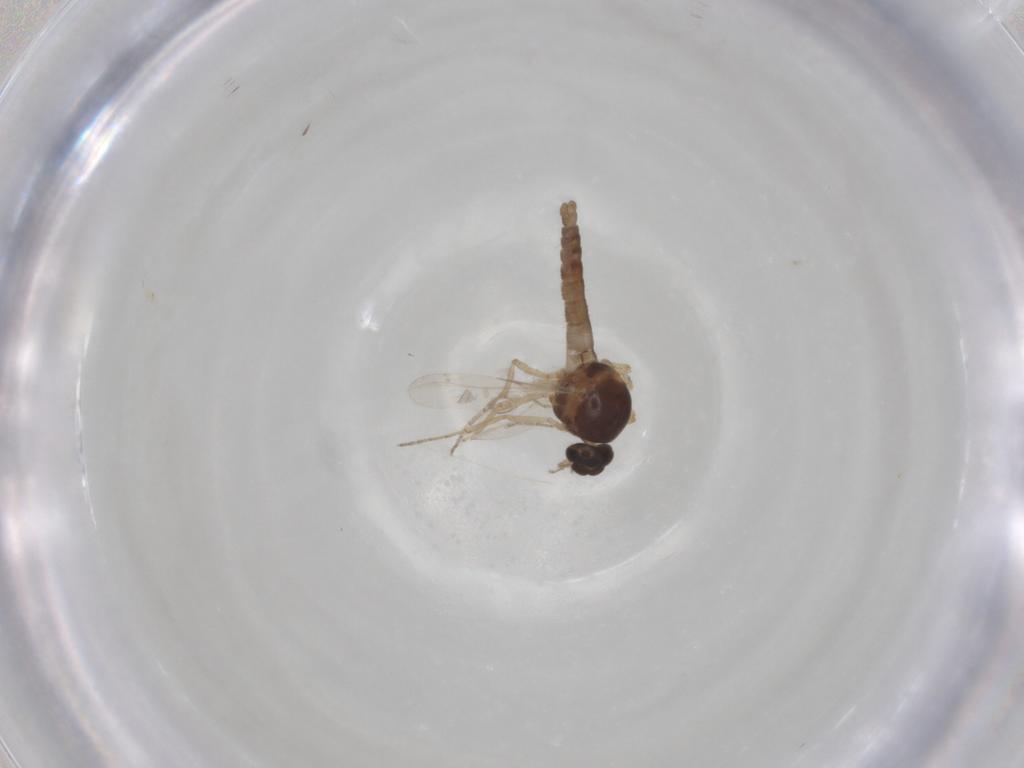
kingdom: Animalia
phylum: Arthropoda
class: Insecta
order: Diptera
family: Ceratopogonidae
